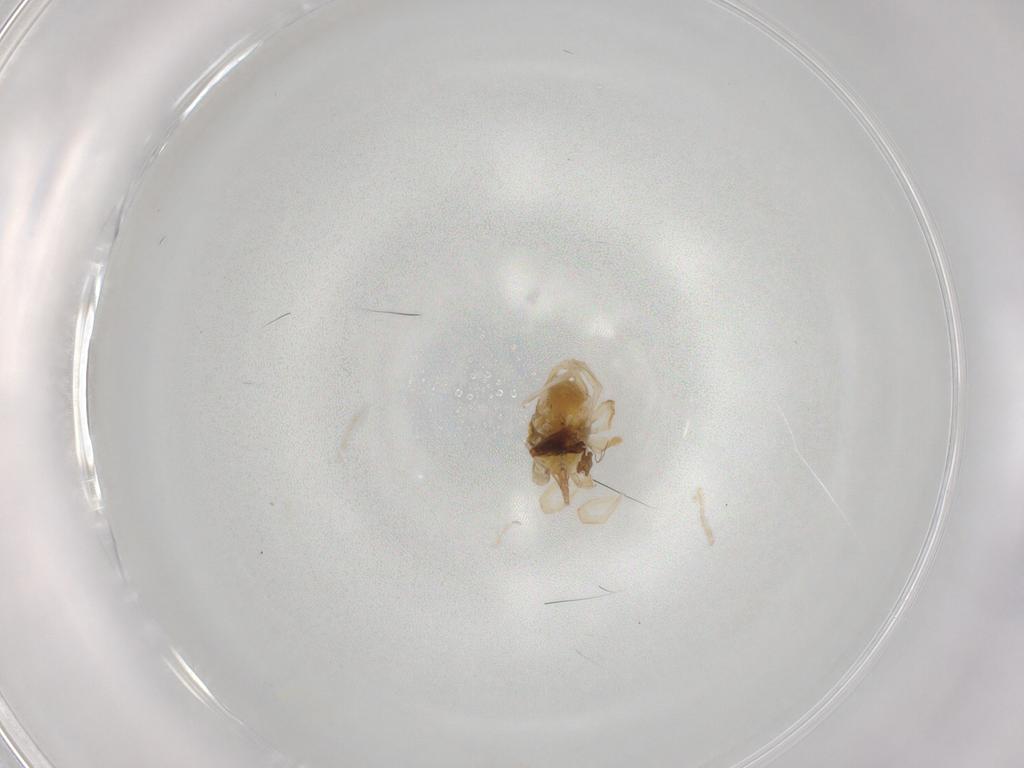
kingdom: Animalia
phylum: Arthropoda
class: Arachnida
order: Trombidiformes
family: Bdellidae
